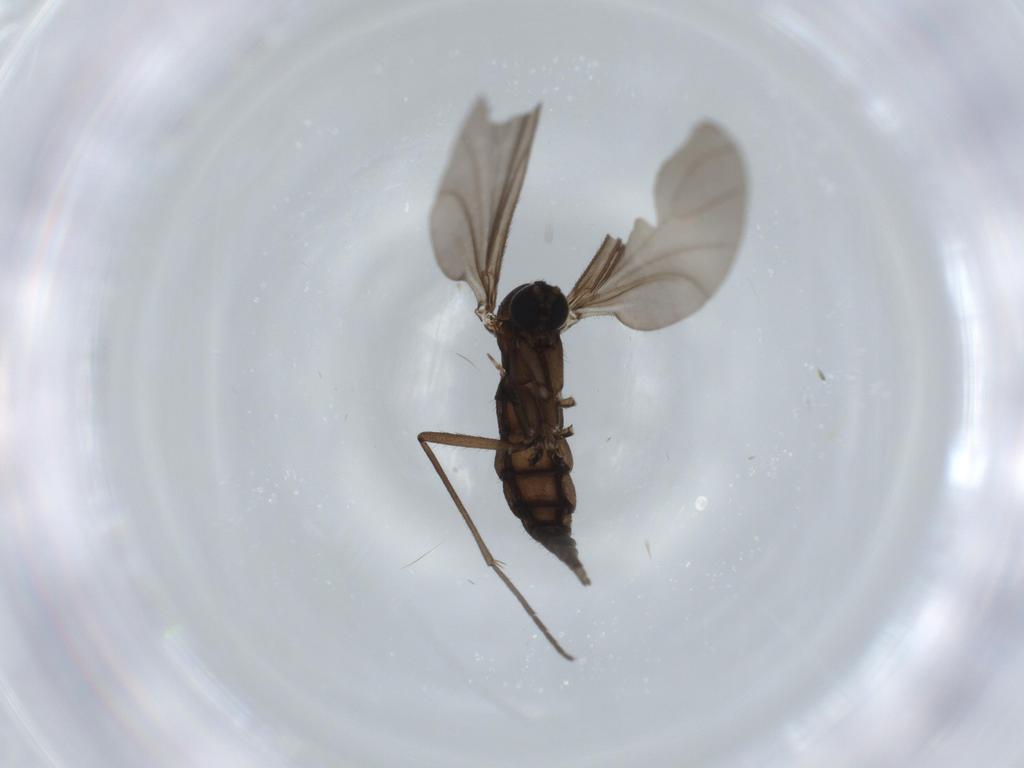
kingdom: Animalia
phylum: Arthropoda
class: Insecta
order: Diptera
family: Sciaridae
